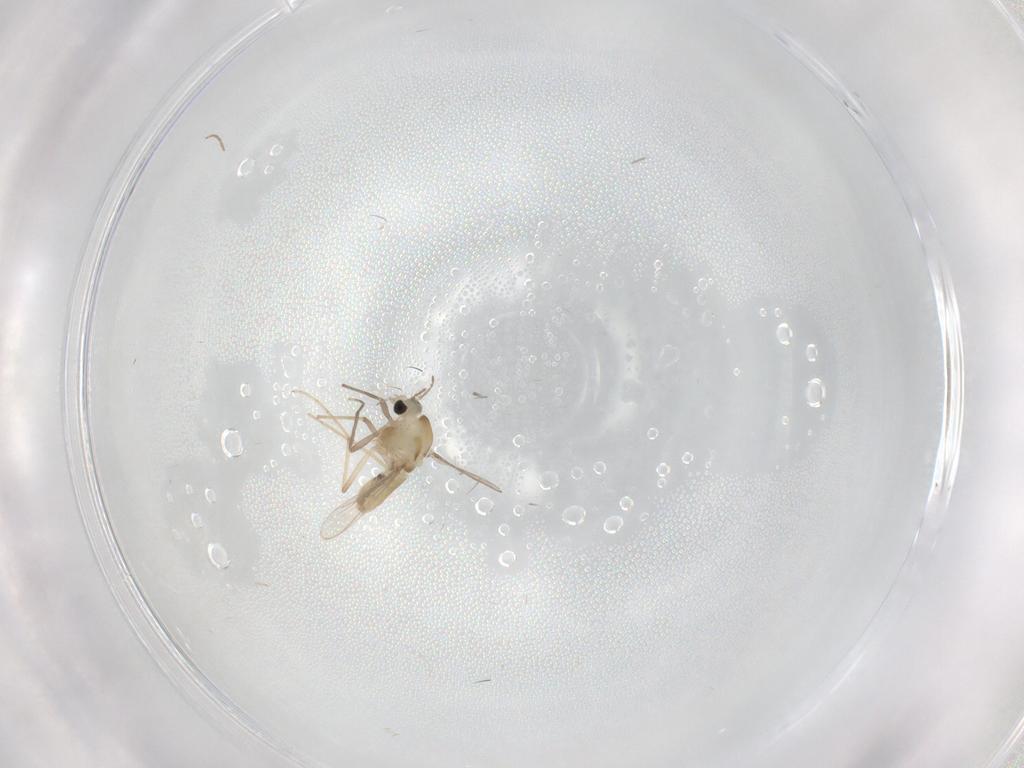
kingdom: Animalia
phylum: Arthropoda
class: Insecta
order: Diptera
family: Chironomidae
